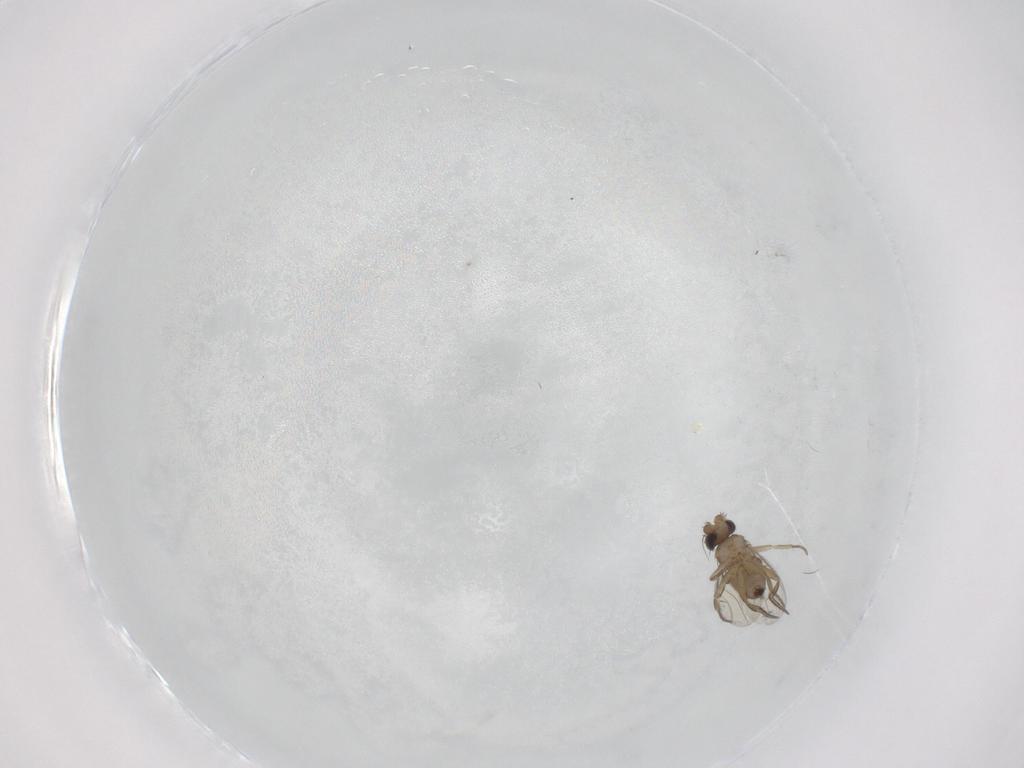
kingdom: Animalia
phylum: Arthropoda
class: Insecta
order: Diptera
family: Phoridae
